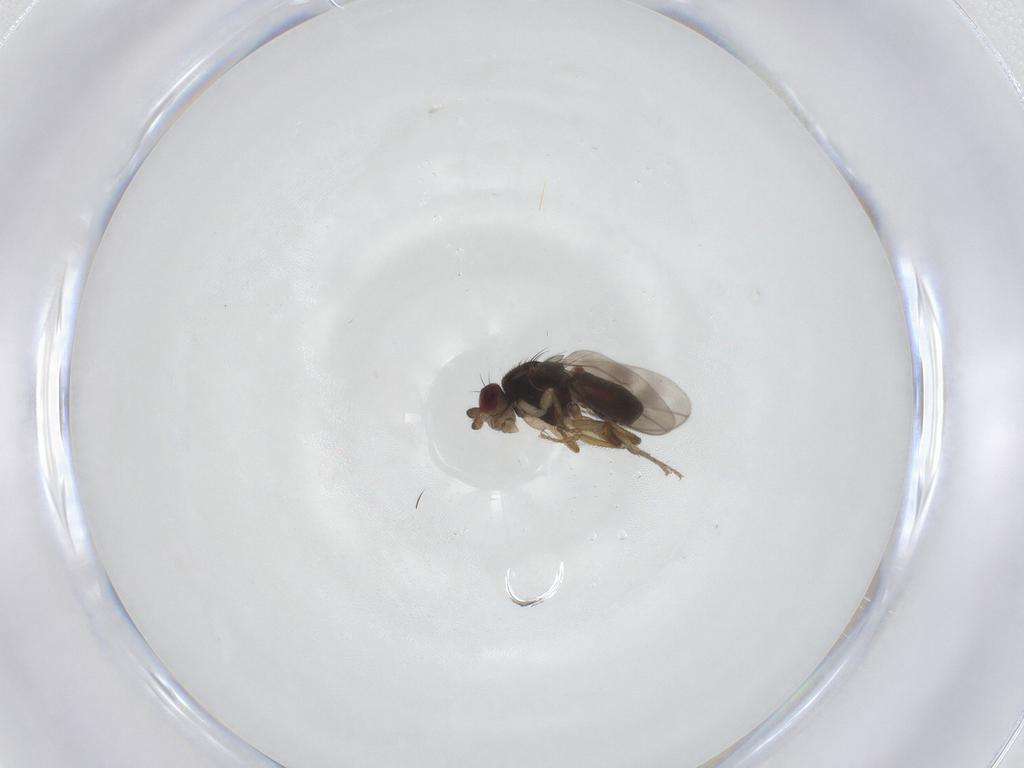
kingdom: Animalia
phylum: Arthropoda
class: Insecta
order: Diptera
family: Sphaeroceridae
